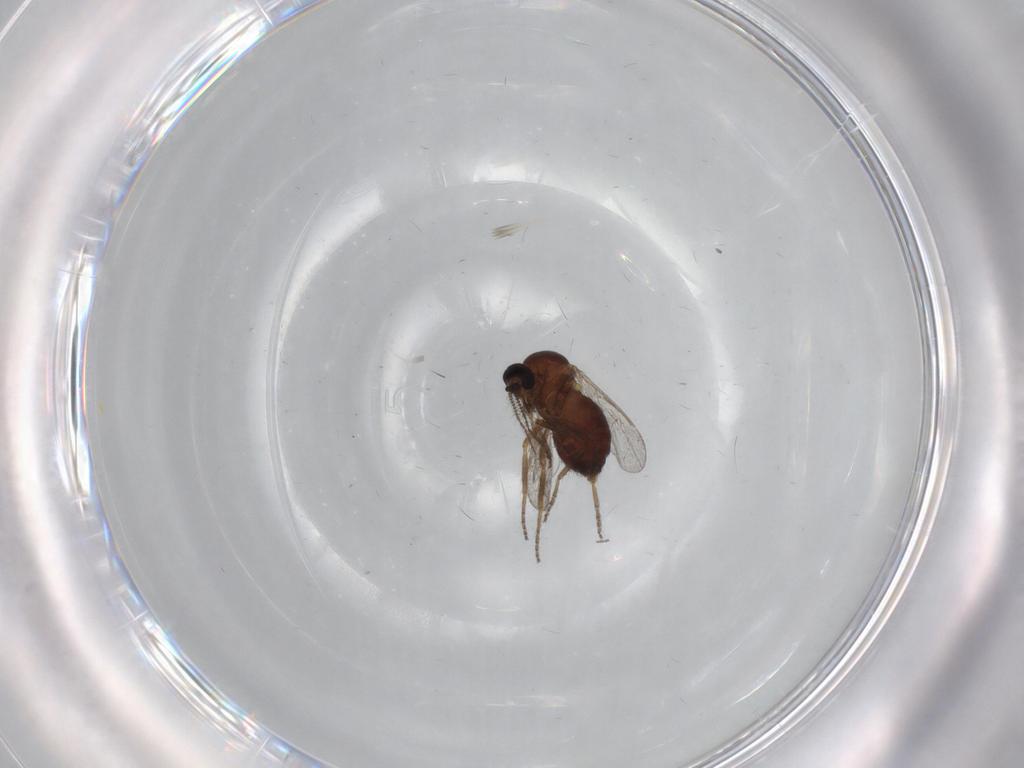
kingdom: Animalia
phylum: Arthropoda
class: Insecta
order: Diptera
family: Ceratopogonidae
